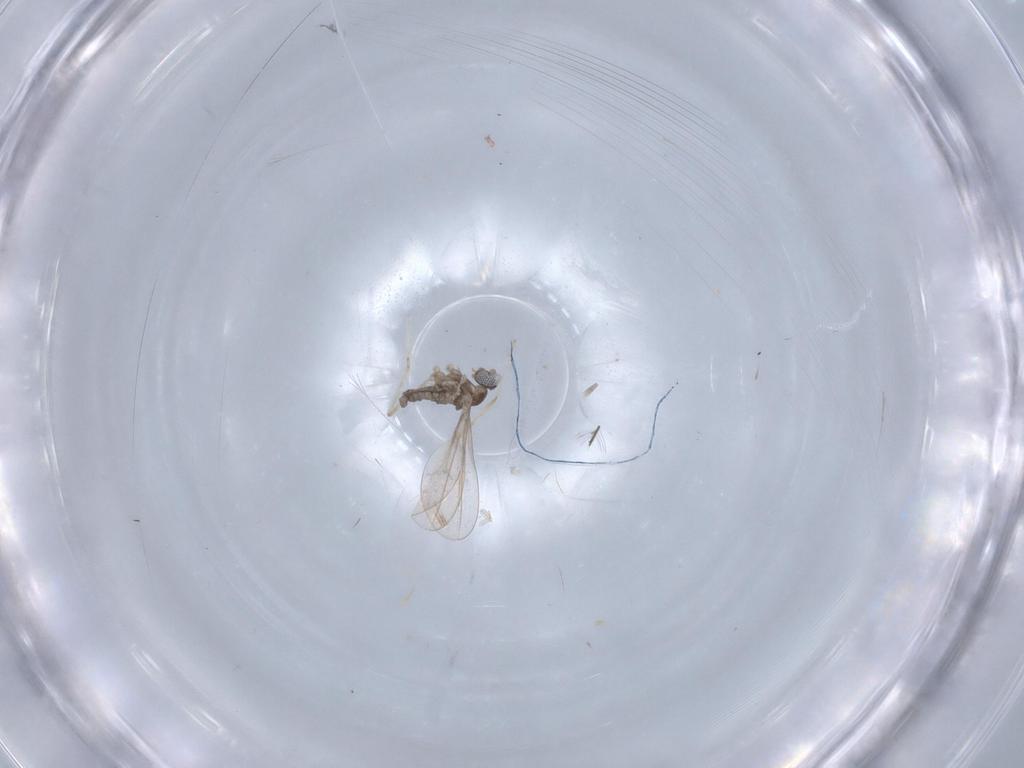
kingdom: Animalia
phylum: Arthropoda
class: Insecta
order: Diptera
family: Cecidomyiidae
